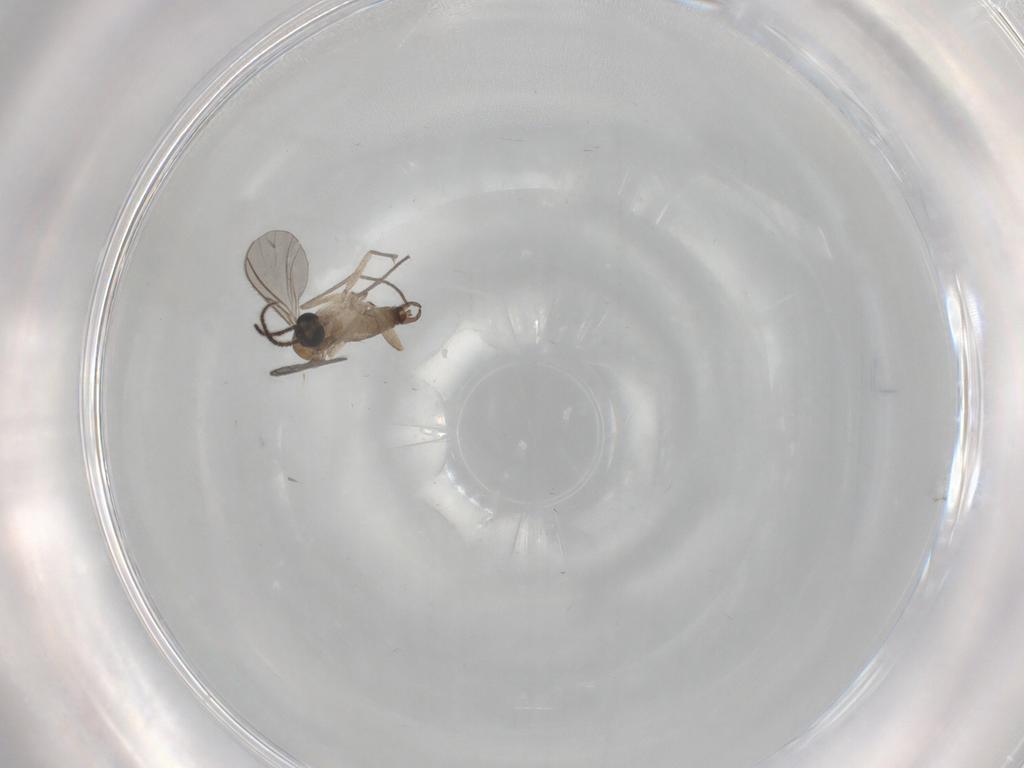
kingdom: Animalia
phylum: Arthropoda
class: Insecta
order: Diptera
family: Sciaridae
